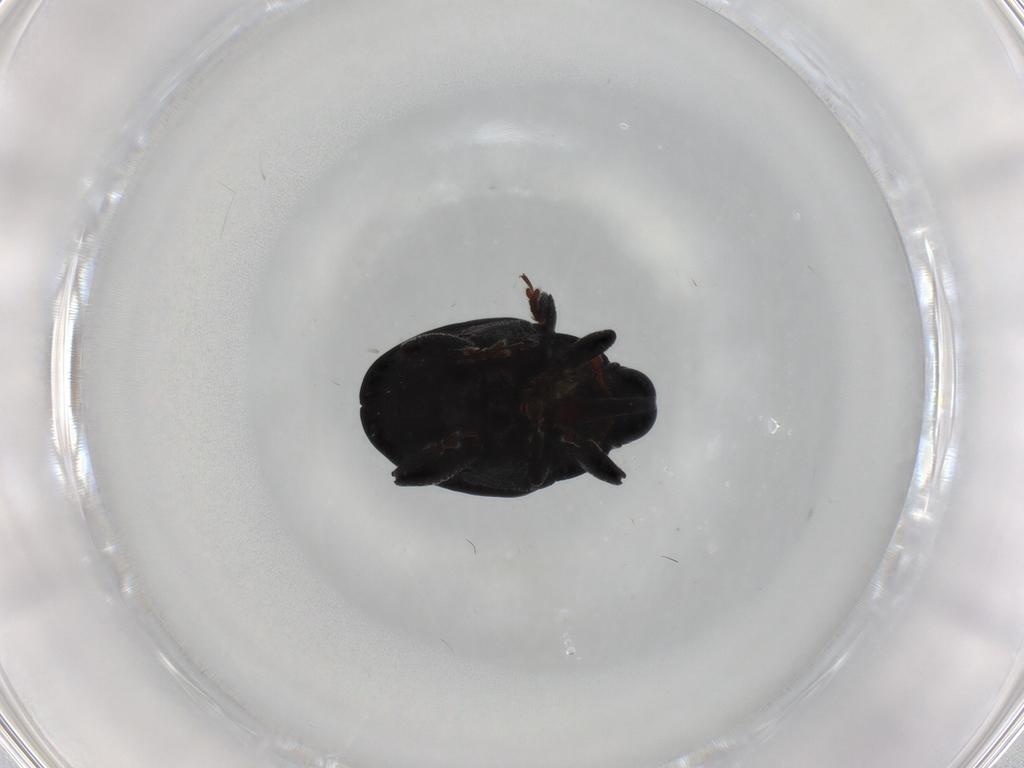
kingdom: Animalia
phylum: Arthropoda
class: Insecta
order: Coleoptera
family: Curculionidae
